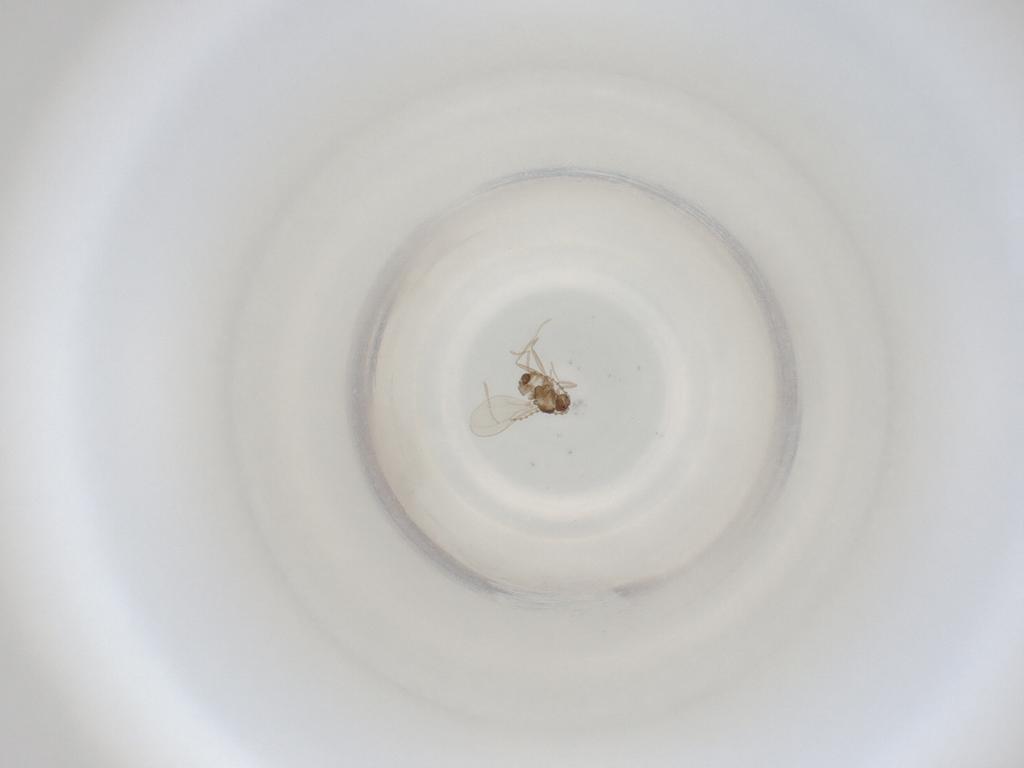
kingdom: Animalia
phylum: Arthropoda
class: Insecta
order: Diptera
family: Cecidomyiidae
